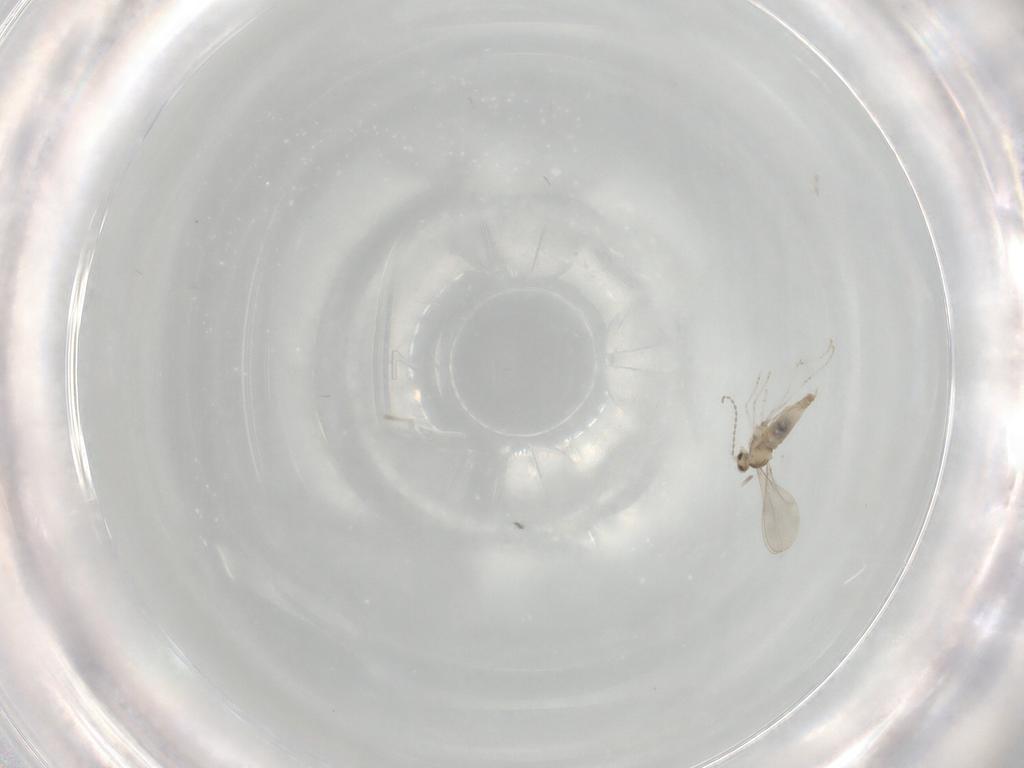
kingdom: Animalia
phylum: Arthropoda
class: Insecta
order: Diptera
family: Cecidomyiidae
